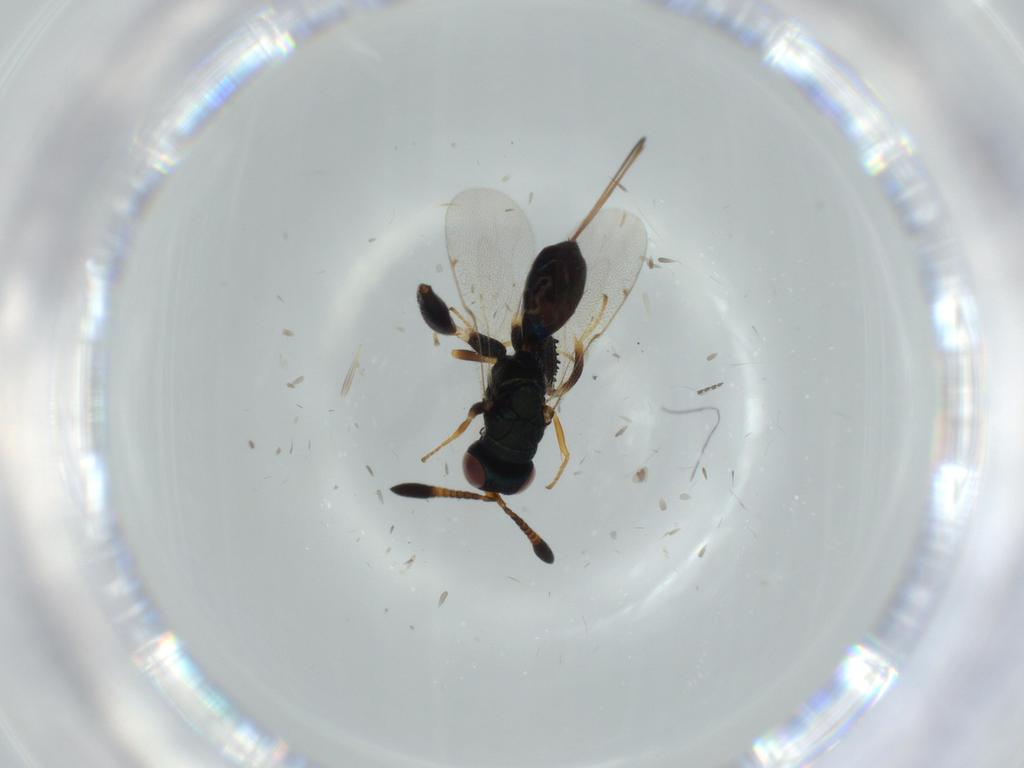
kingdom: Animalia
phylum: Arthropoda
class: Insecta
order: Hymenoptera
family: Torymidae
